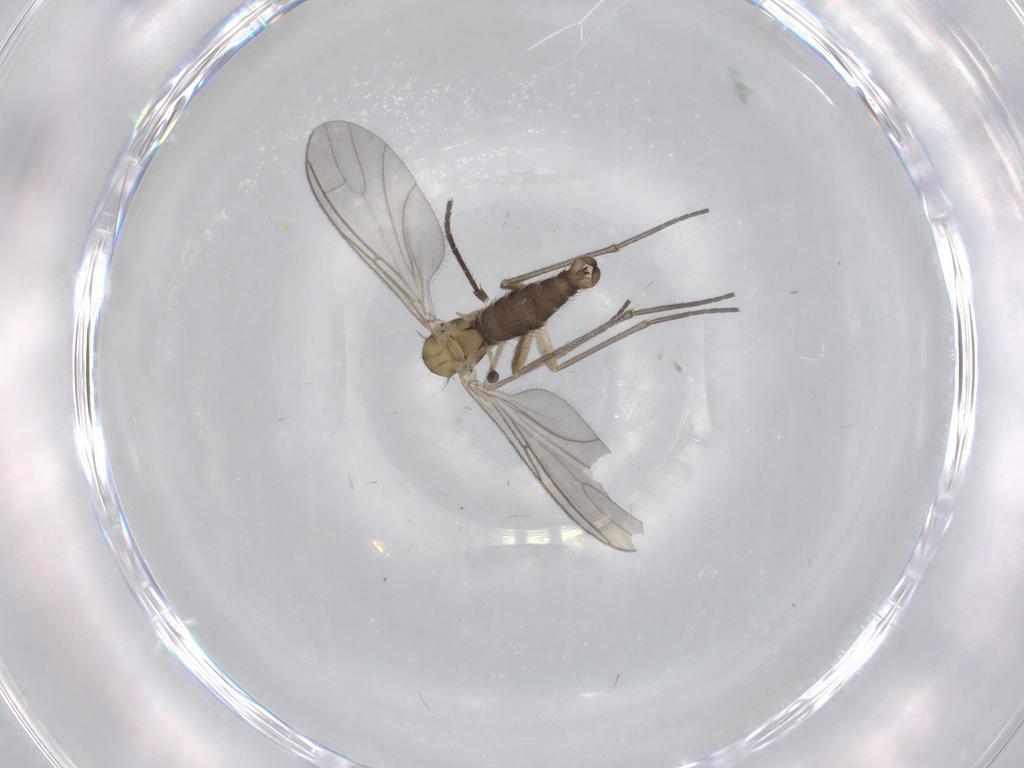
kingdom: Animalia
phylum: Arthropoda
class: Insecta
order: Diptera
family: Sciaridae
